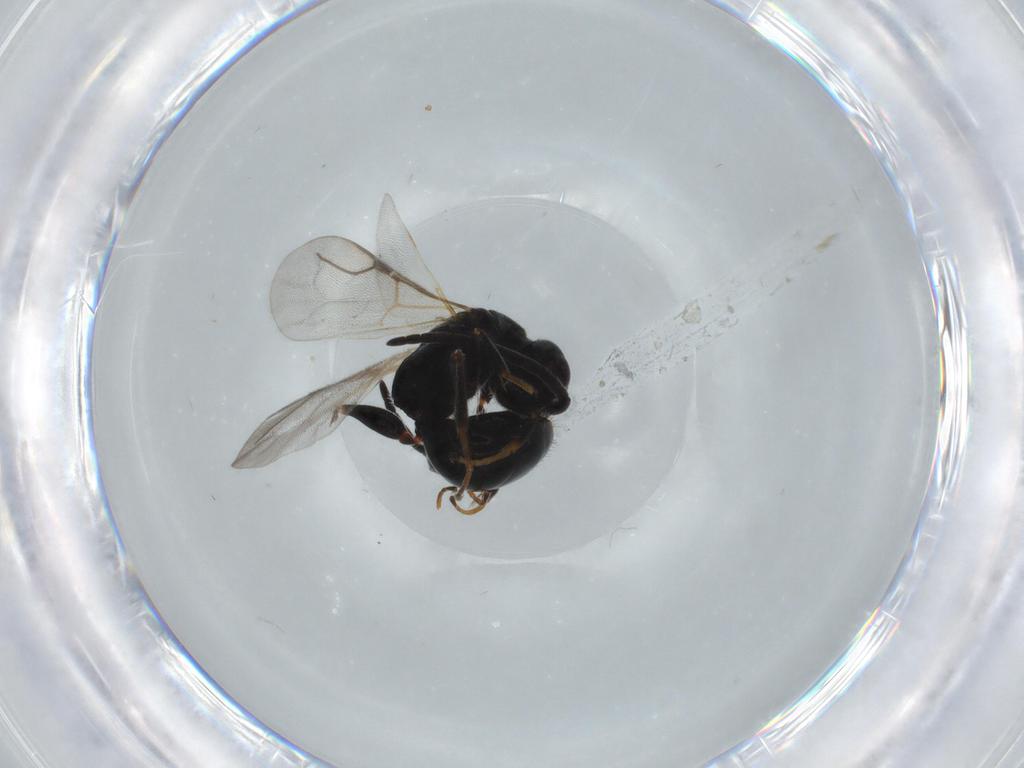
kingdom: Animalia
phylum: Arthropoda
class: Insecta
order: Hymenoptera
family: Bethylidae
